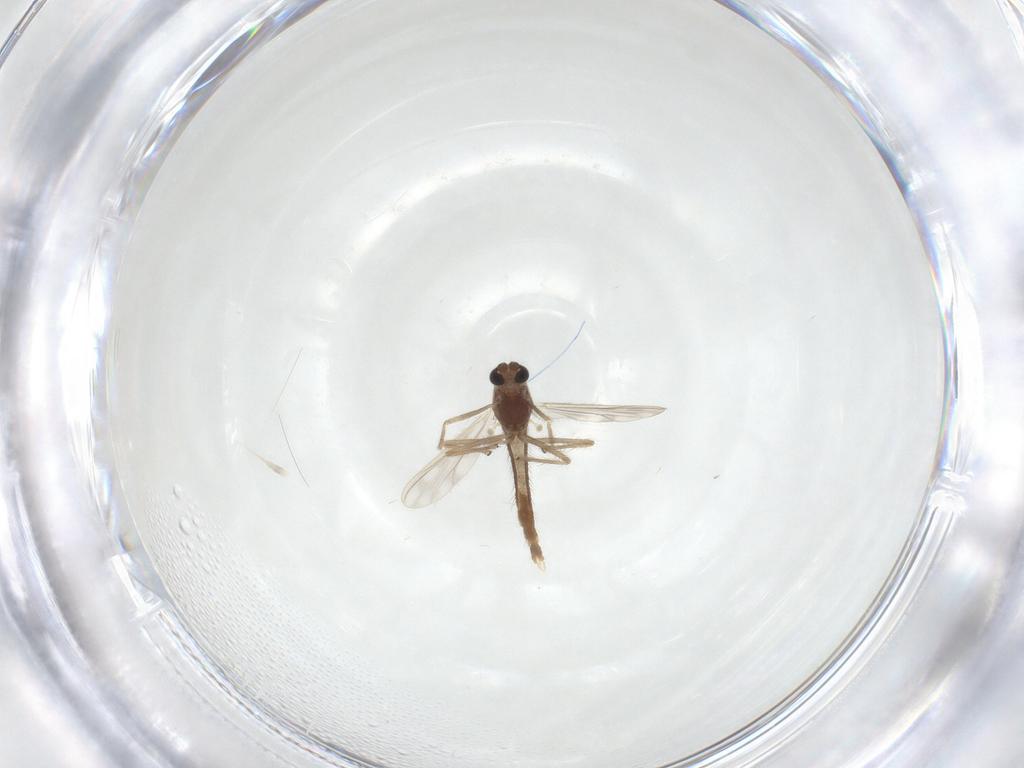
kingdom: Animalia
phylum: Arthropoda
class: Insecta
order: Diptera
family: Chironomidae
